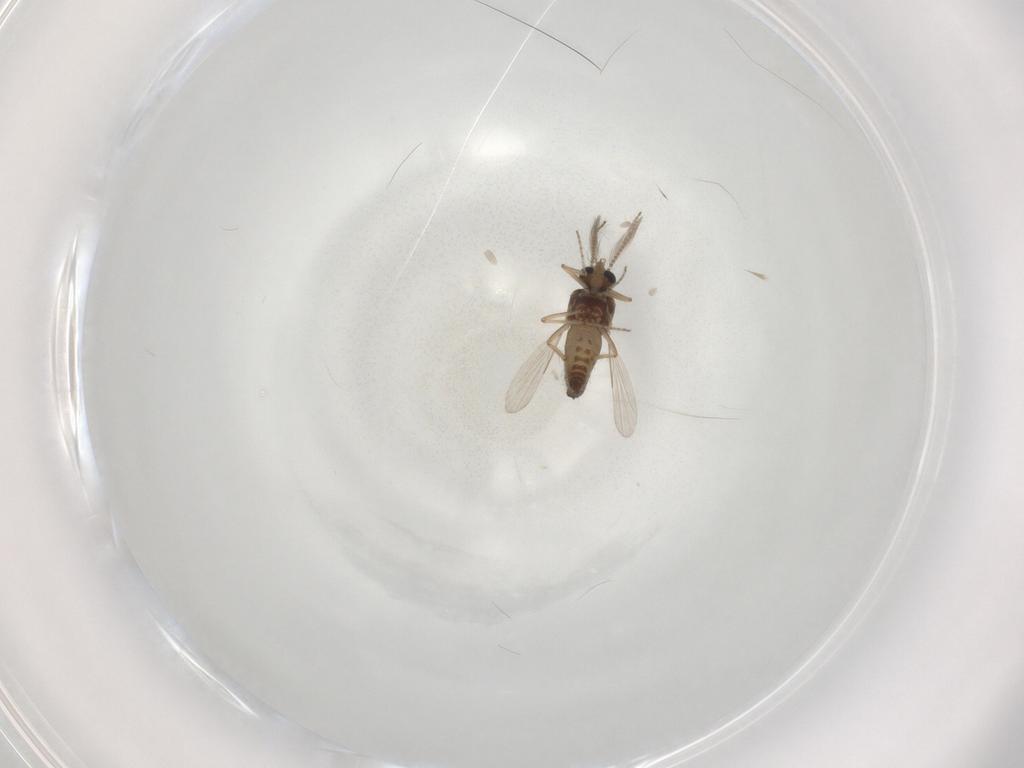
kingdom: Animalia
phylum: Arthropoda
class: Insecta
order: Diptera
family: Ceratopogonidae
